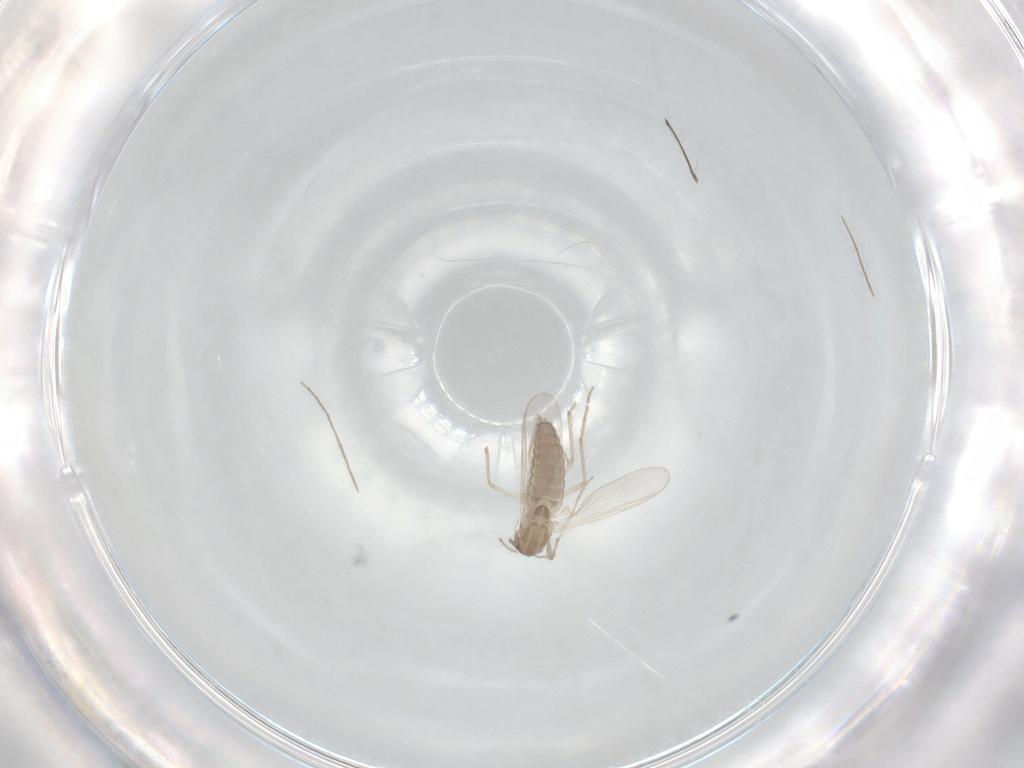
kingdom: Animalia
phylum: Arthropoda
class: Insecta
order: Diptera
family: Chironomidae
